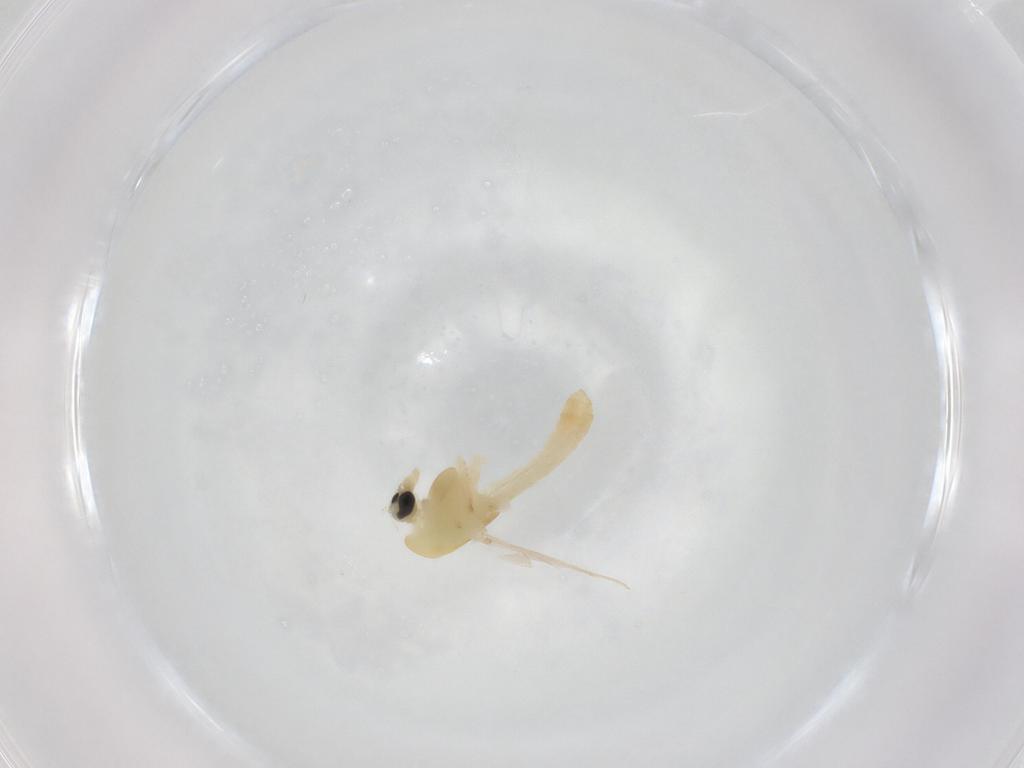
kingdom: Animalia
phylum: Arthropoda
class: Insecta
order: Diptera
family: Chironomidae
